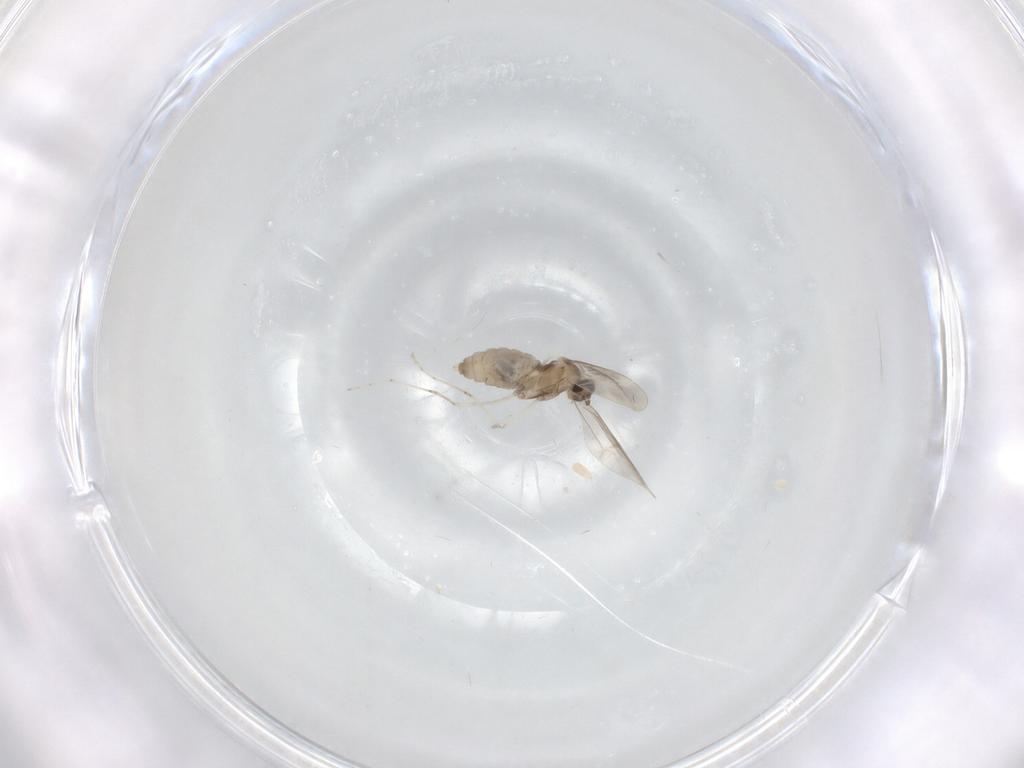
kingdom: Animalia
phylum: Arthropoda
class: Insecta
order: Diptera
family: Cecidomyiidae
